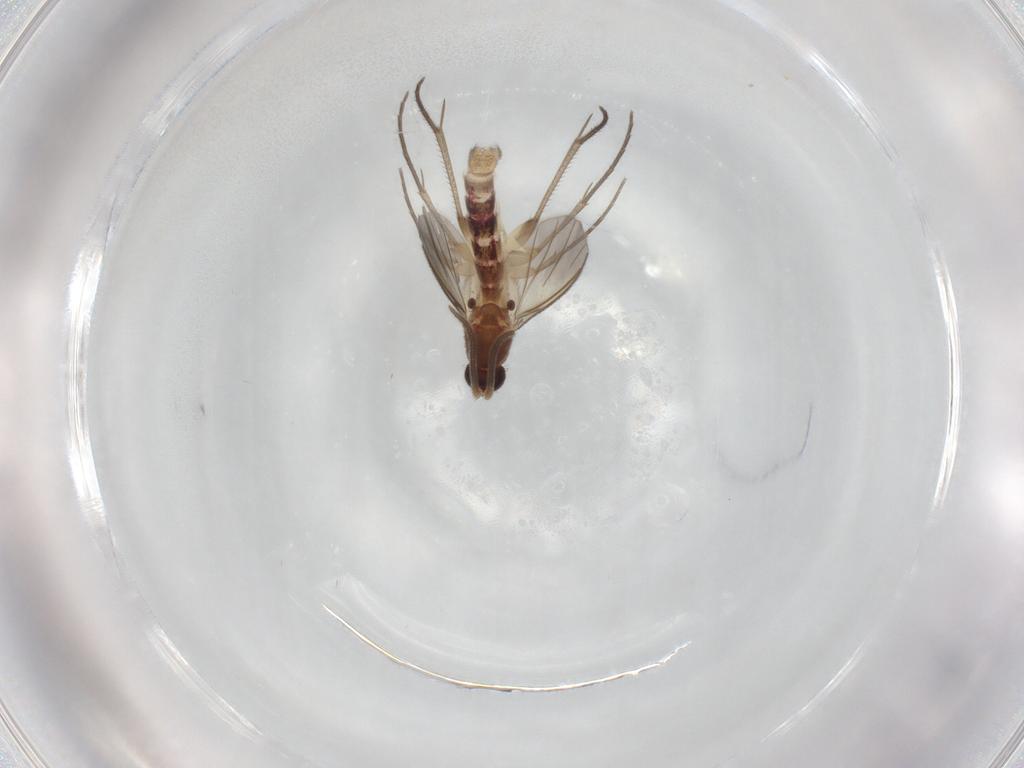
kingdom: Animalia
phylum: Arthropoda
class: Insecta
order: Diptera
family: Mycetophilidae
